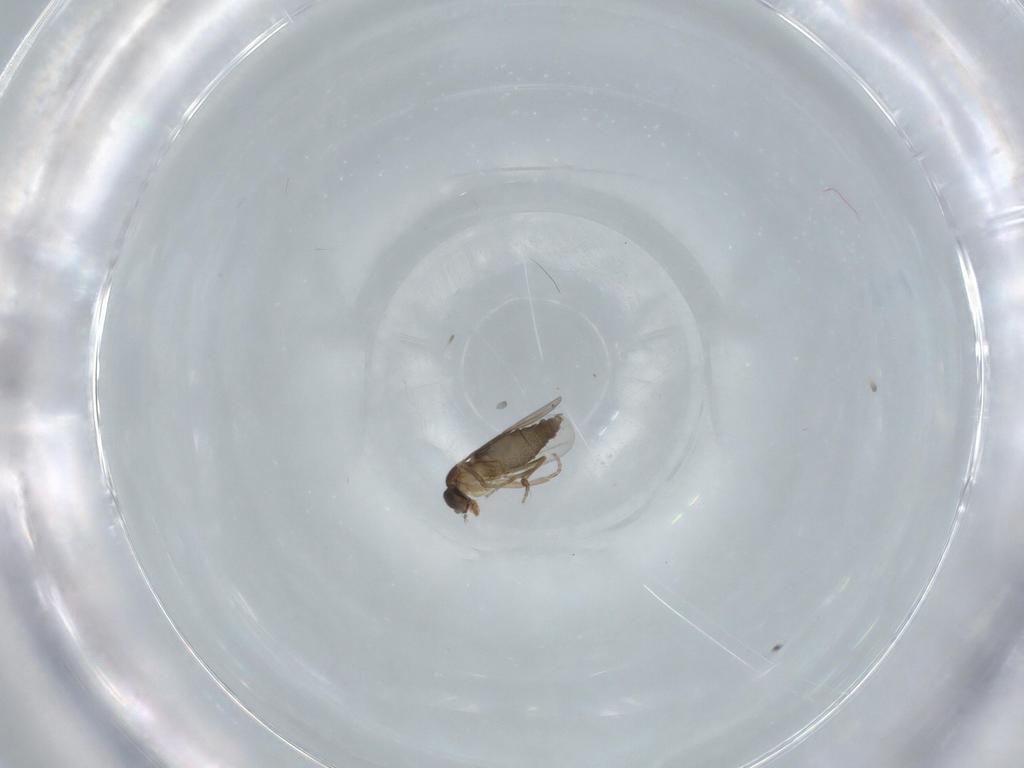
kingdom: Animalia
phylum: Arthropoda
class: Insecta
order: Diptera
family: Phoridae
